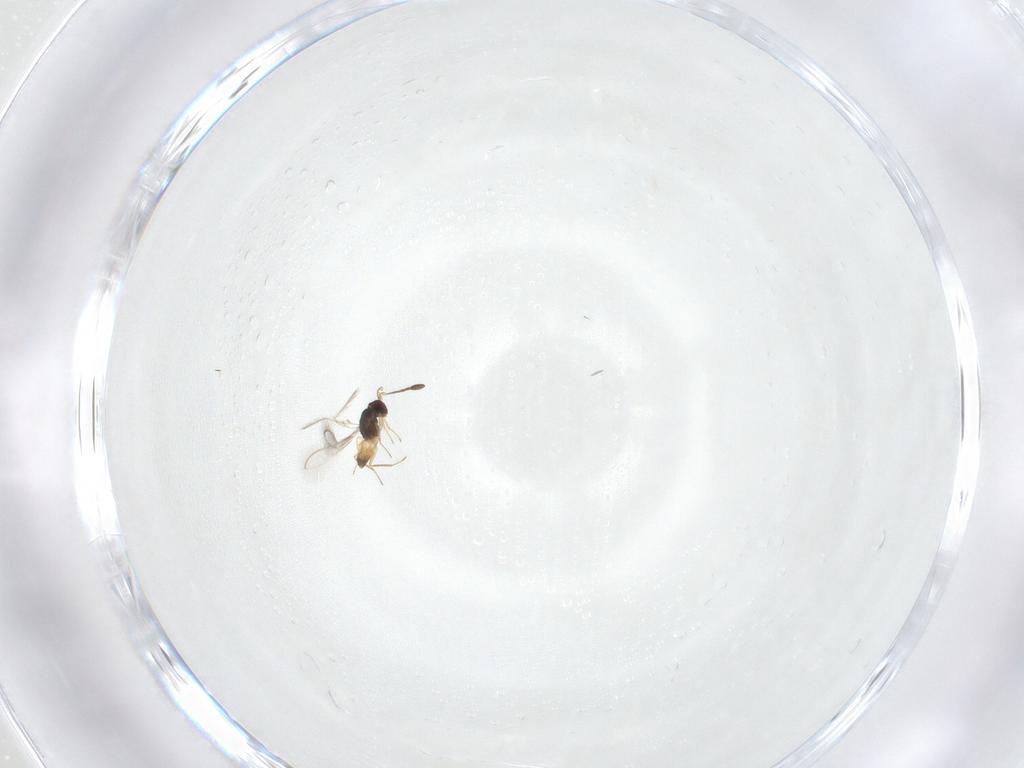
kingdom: Animalia
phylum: Arthropoda
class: Insecta
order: Hymenoptera
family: Mymaridae
